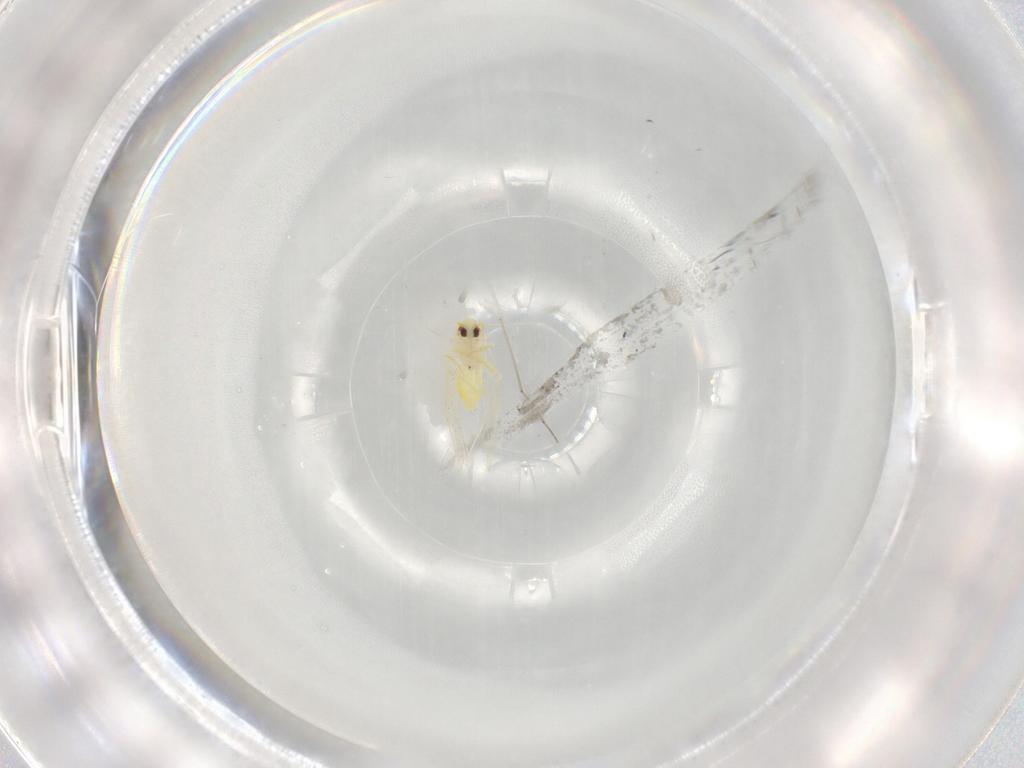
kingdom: Animalia
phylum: Arthropoda
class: Insecta
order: Hemiptera
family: Aleyrodidae
